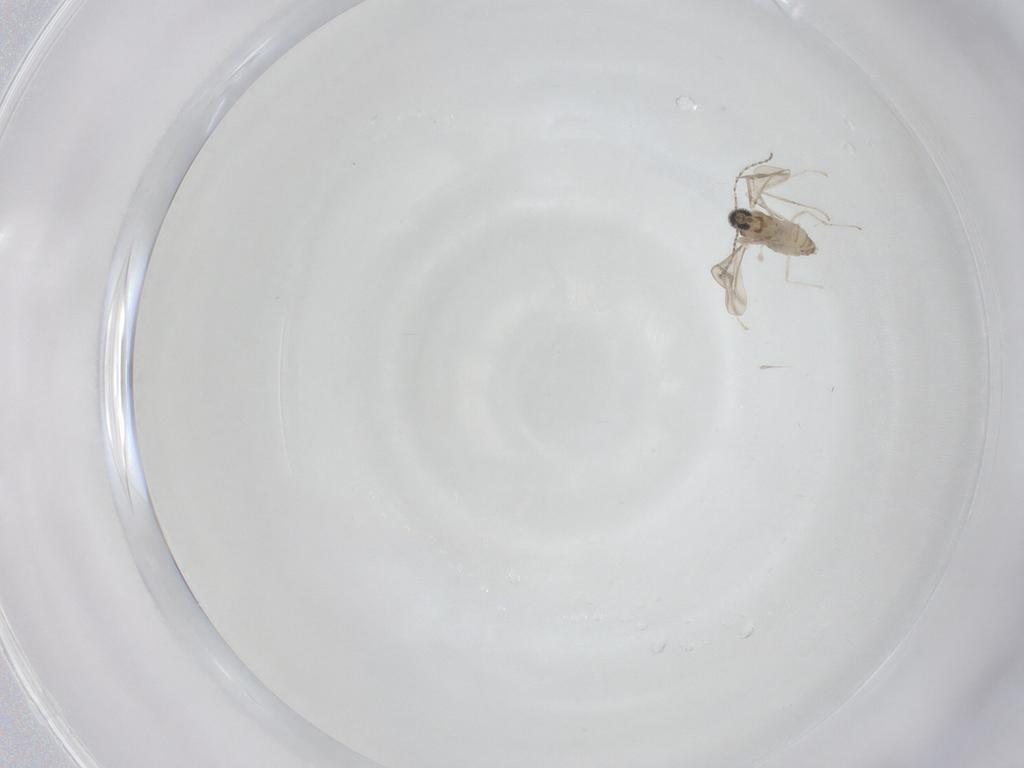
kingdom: Animalia
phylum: Arthropoda
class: Insecta
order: Diptera
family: Cecidomyiidae
